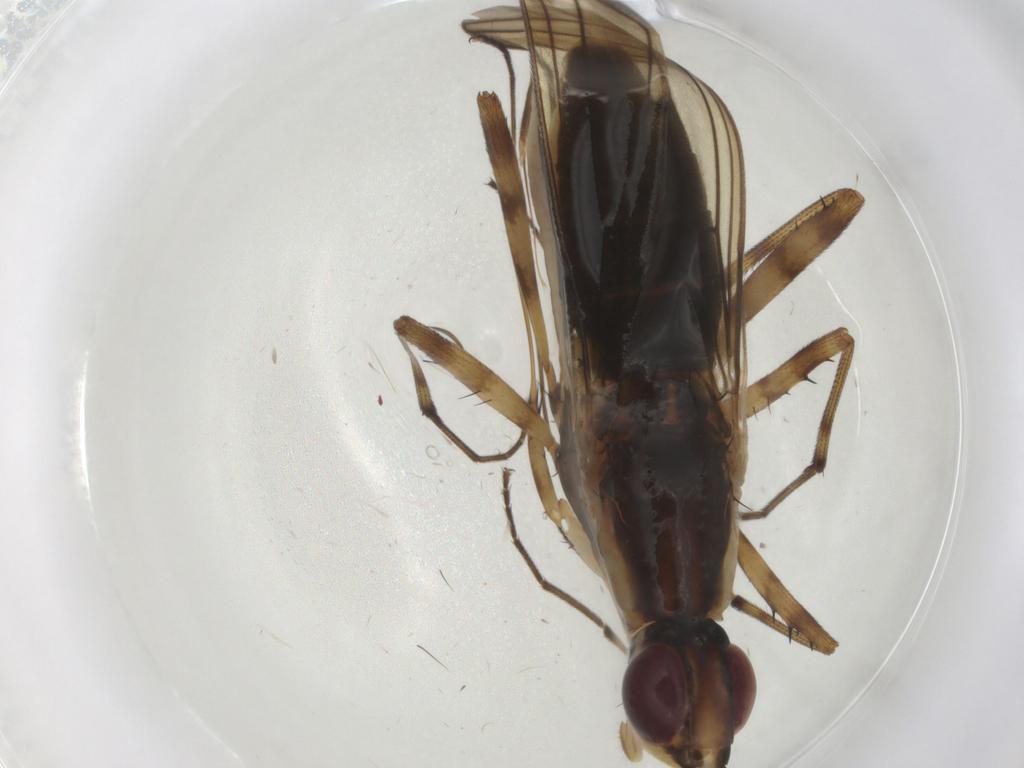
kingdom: Animalia
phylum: Arthropoda
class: Insecta
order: Diptera
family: Neriidae
